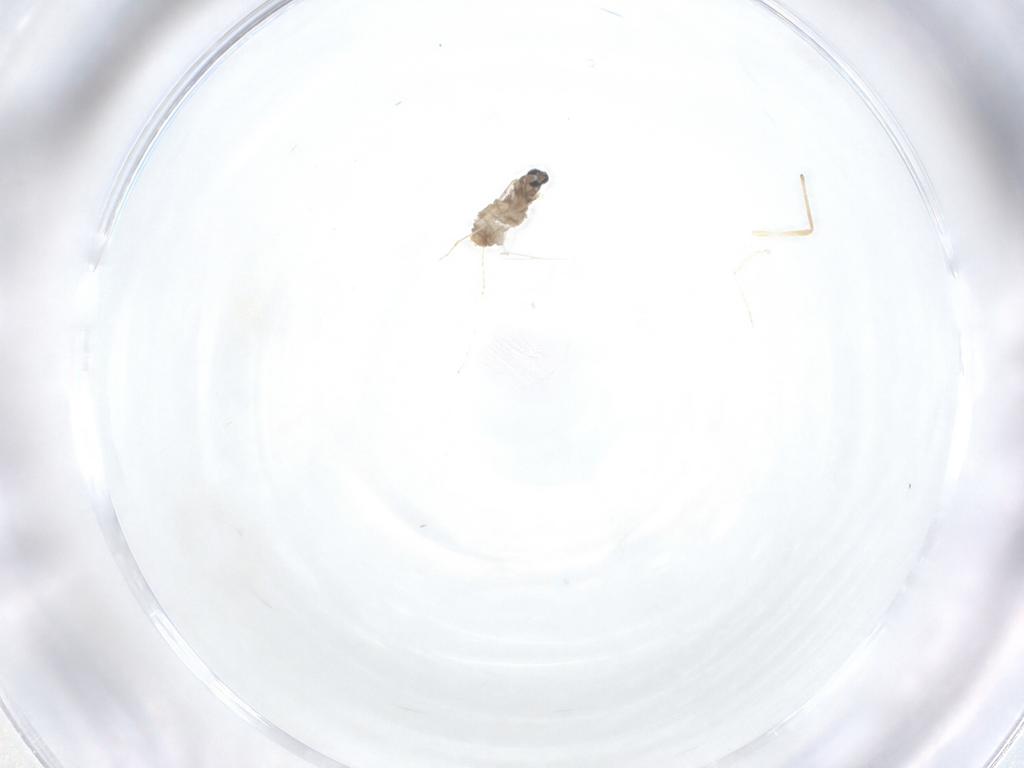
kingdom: Animalia
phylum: Arthropoda
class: Insecta
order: Diptera
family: Cecidomyiidae
